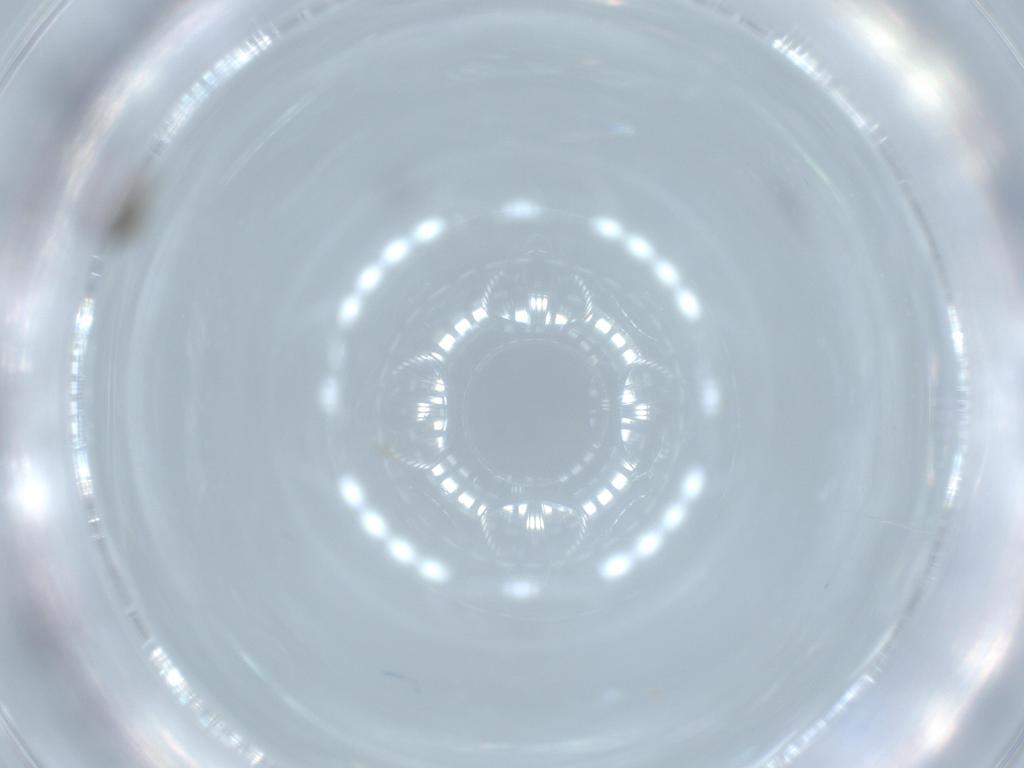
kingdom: Animalia
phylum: Arthropoda
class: Insecta
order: Diptera
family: Cecidomyiidae
